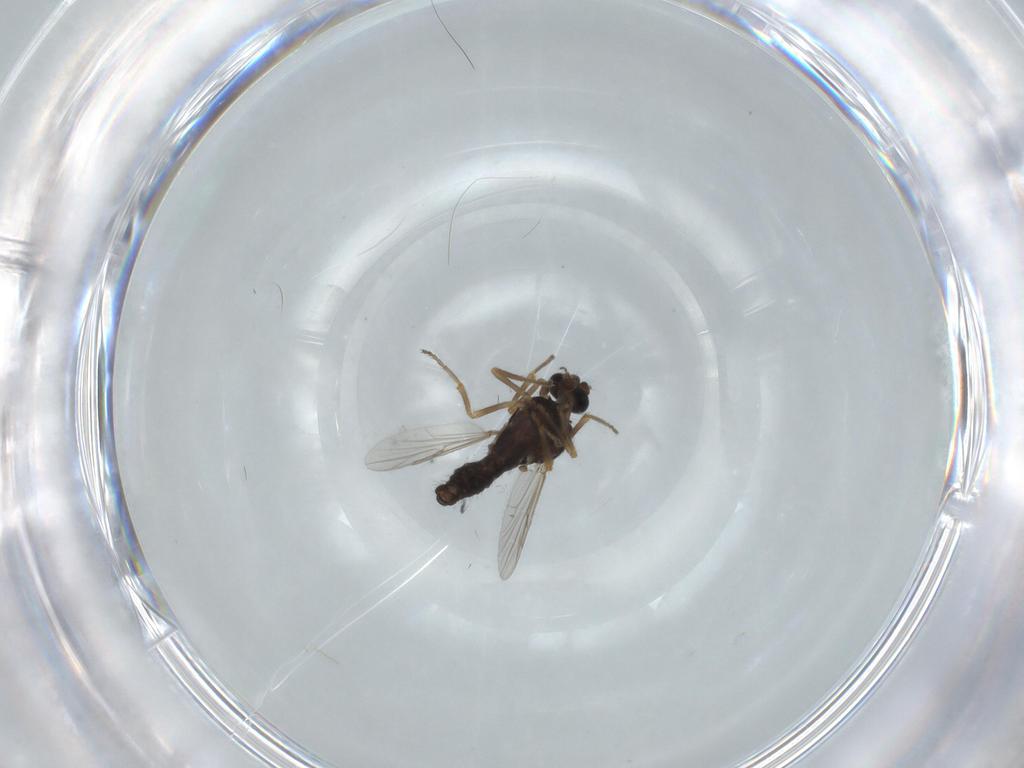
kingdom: Animalia
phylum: Arthropoda
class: Insecta
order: Diptera
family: Ceratopogonidae
